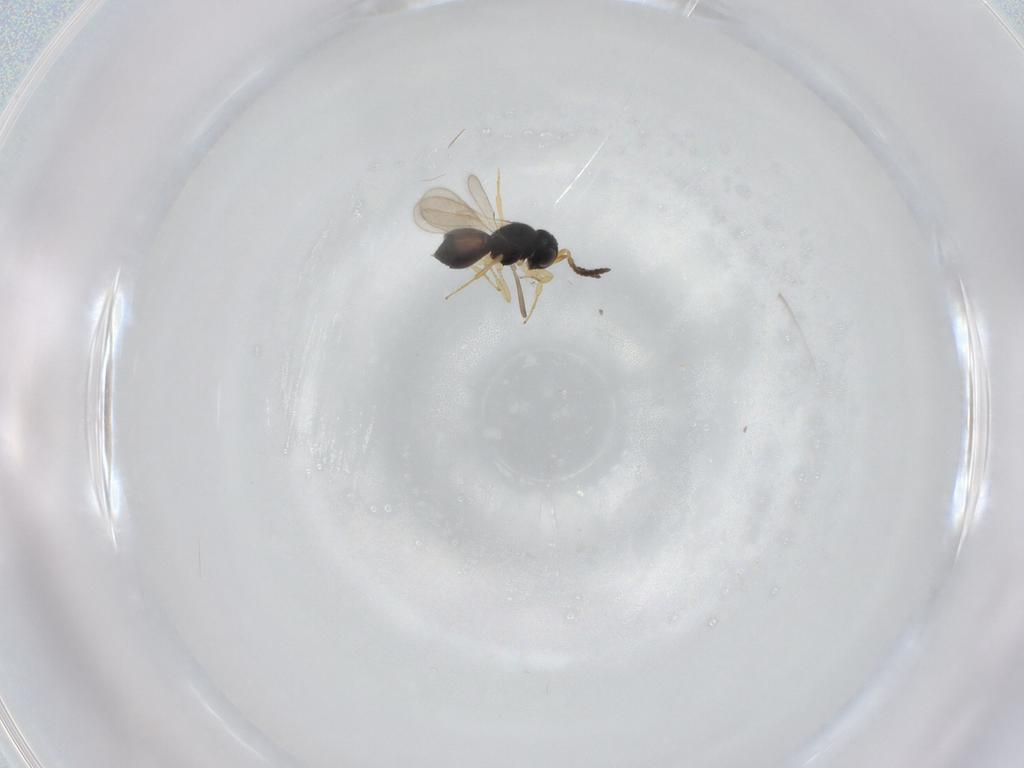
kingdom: Animalia
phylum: Arthropoda
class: Insecta
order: Hymenoptera
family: Scelionidae
